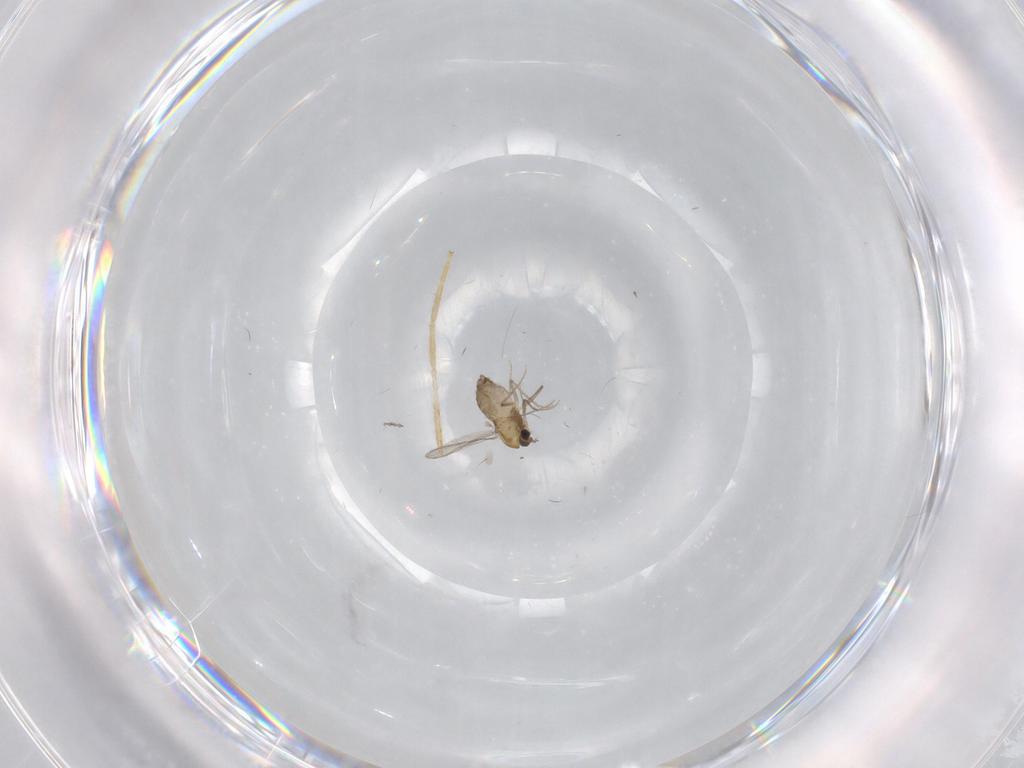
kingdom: Animalia
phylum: Arthropoda
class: Insecta
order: Diptera
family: Chironomidae
